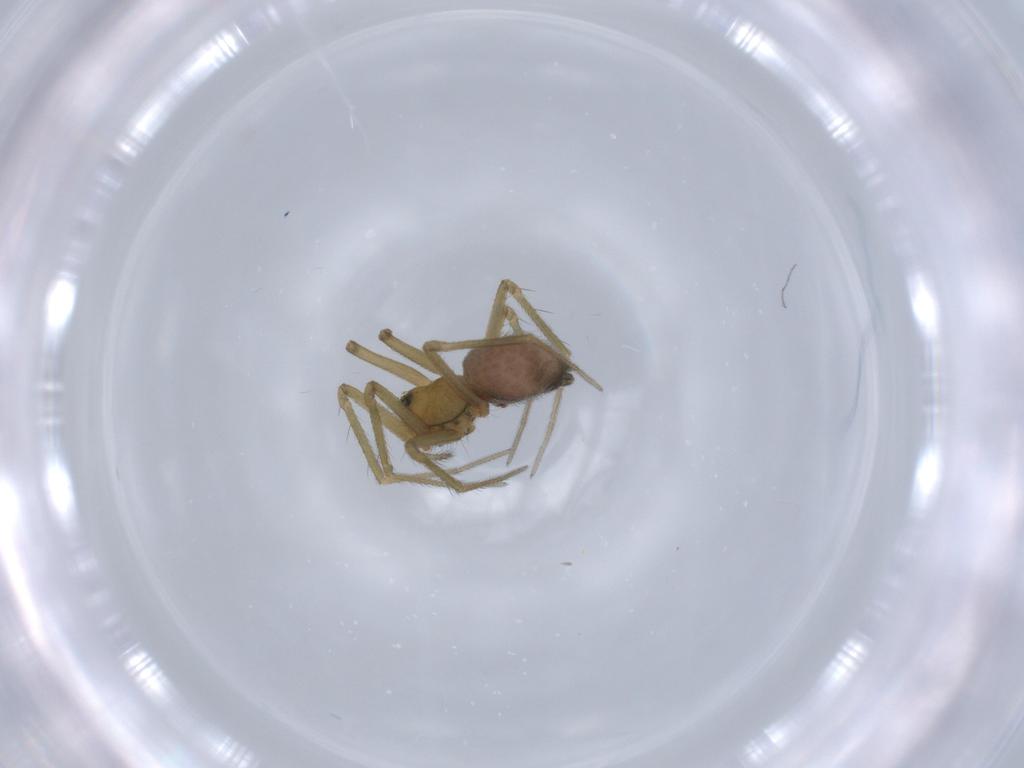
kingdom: Animalia
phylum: Arthropoda
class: Arachnida
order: Araneae
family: Linyphiidae
